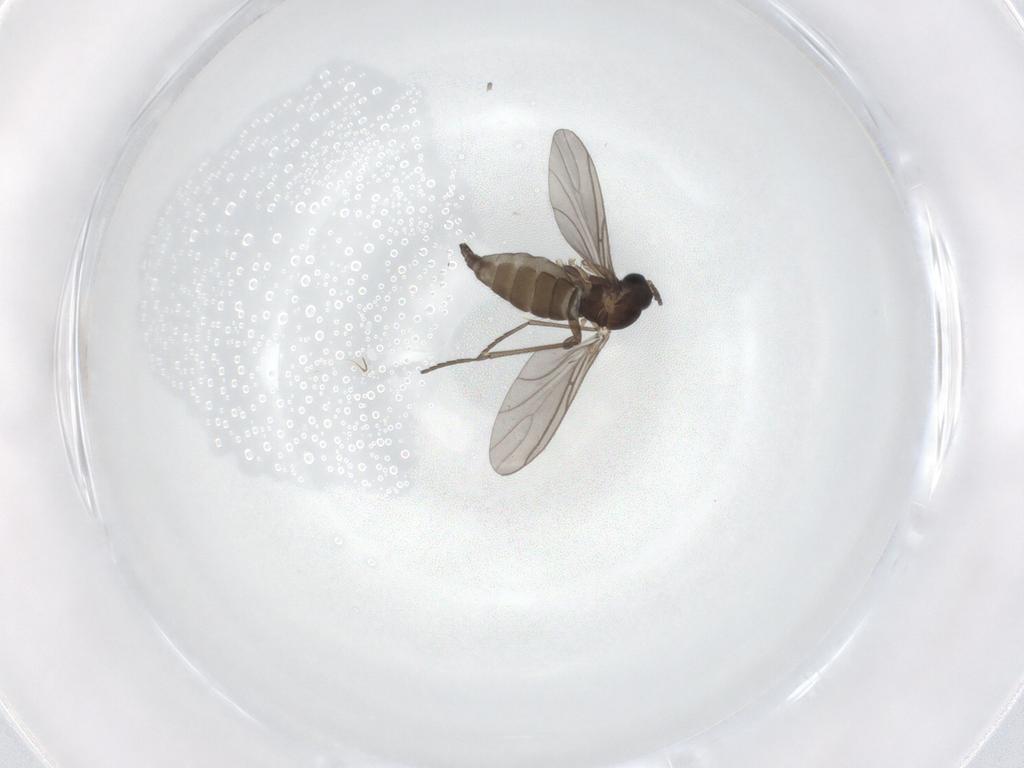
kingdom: Animalia
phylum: Arthropoda
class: Insecta
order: Diptera
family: Sciaridae
